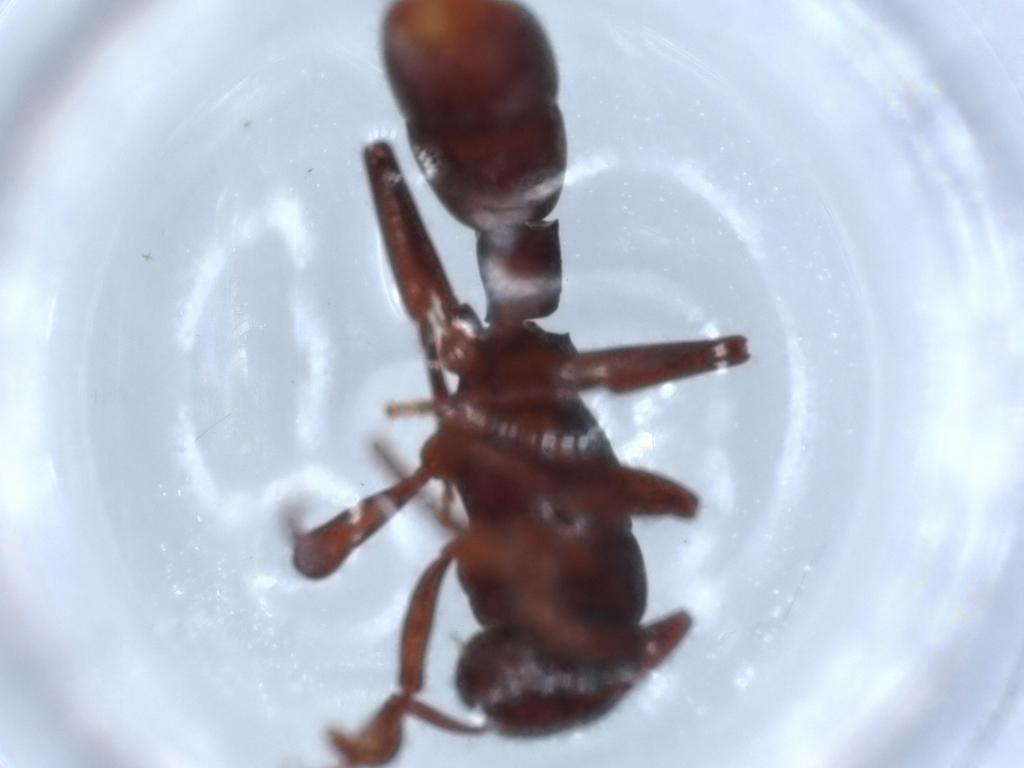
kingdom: Animalia
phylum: Arthropoda
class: Insecta
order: Hymenoptera
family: Formicidae
